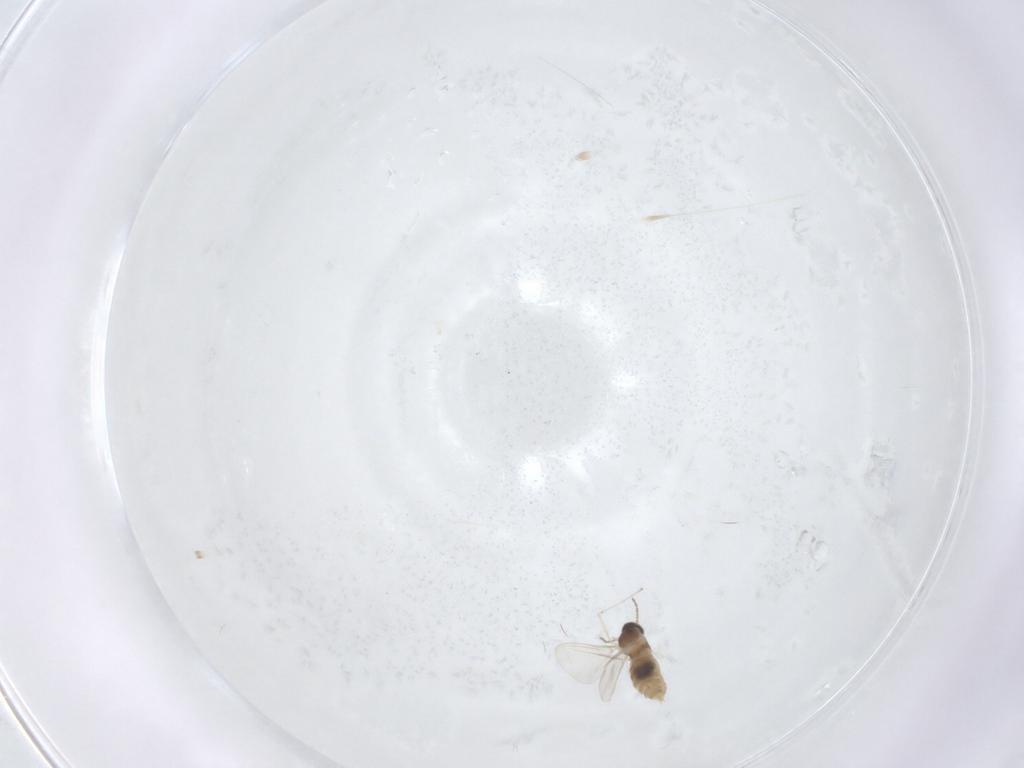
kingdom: Animalia
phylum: Arthropoda
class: Insecta
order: Diptera
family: Cecidomyiidae
